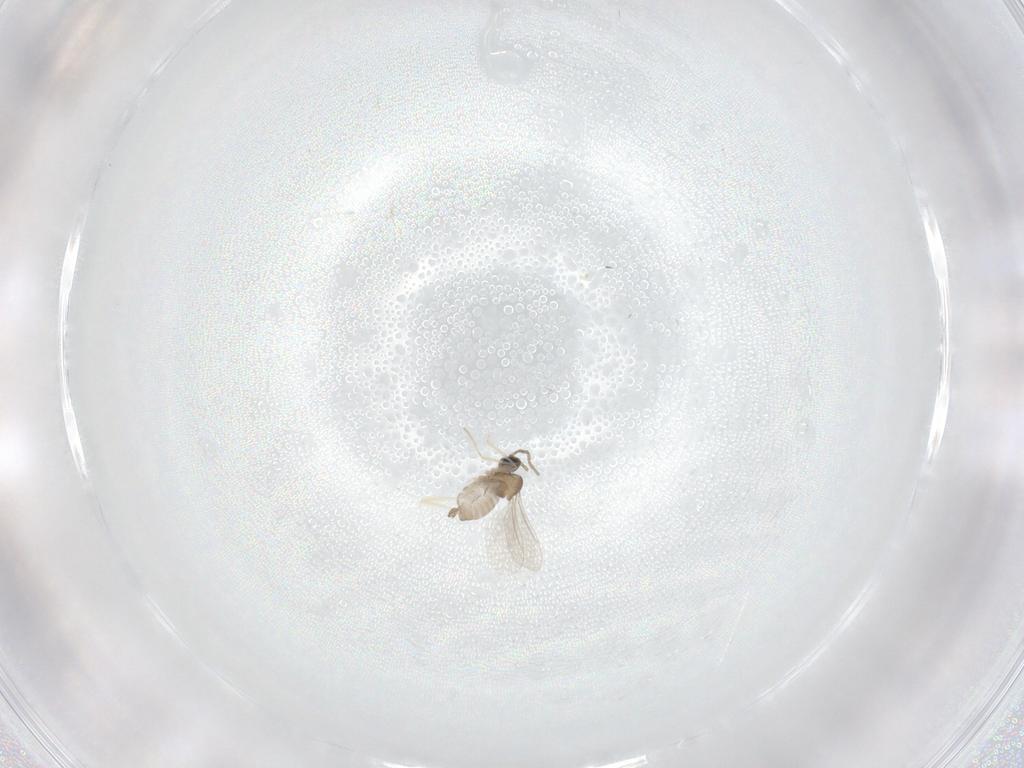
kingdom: Animalia
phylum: Arthropoda
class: Insecta
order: Diptera
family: Cecidomyiidae
